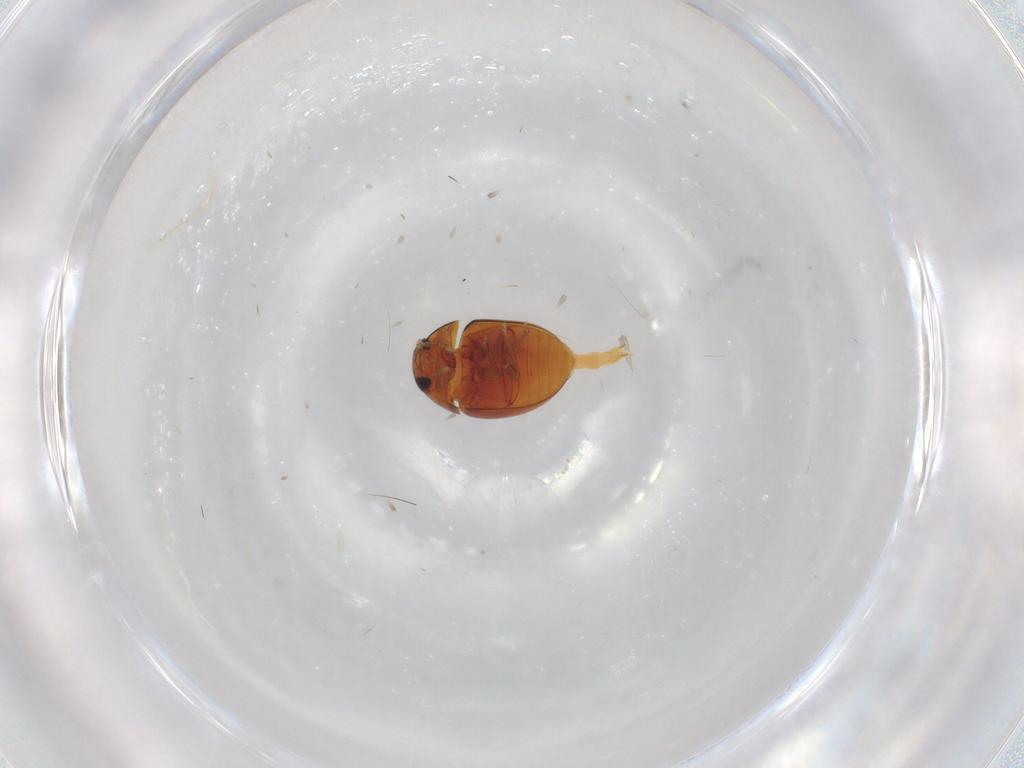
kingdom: Animalia
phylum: Arthropoda
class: Insecta
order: Coleoptera
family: Phalacridae
